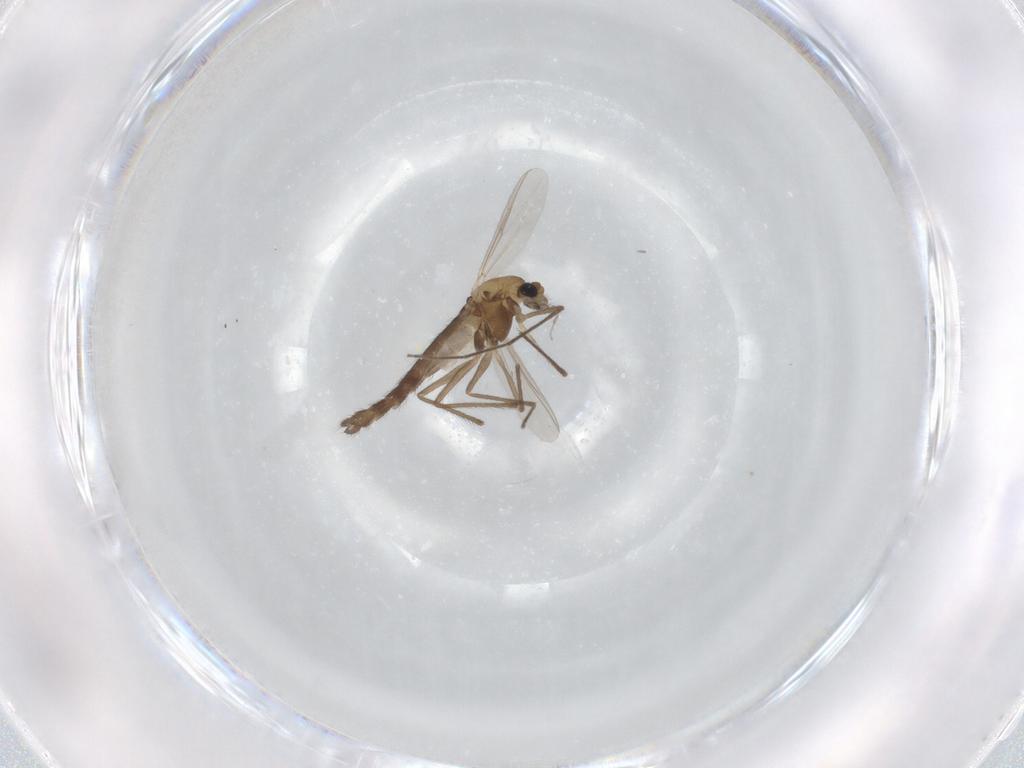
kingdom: Animalia
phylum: Arthropoda
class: Insecta
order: Diptera
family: Chironomidae
